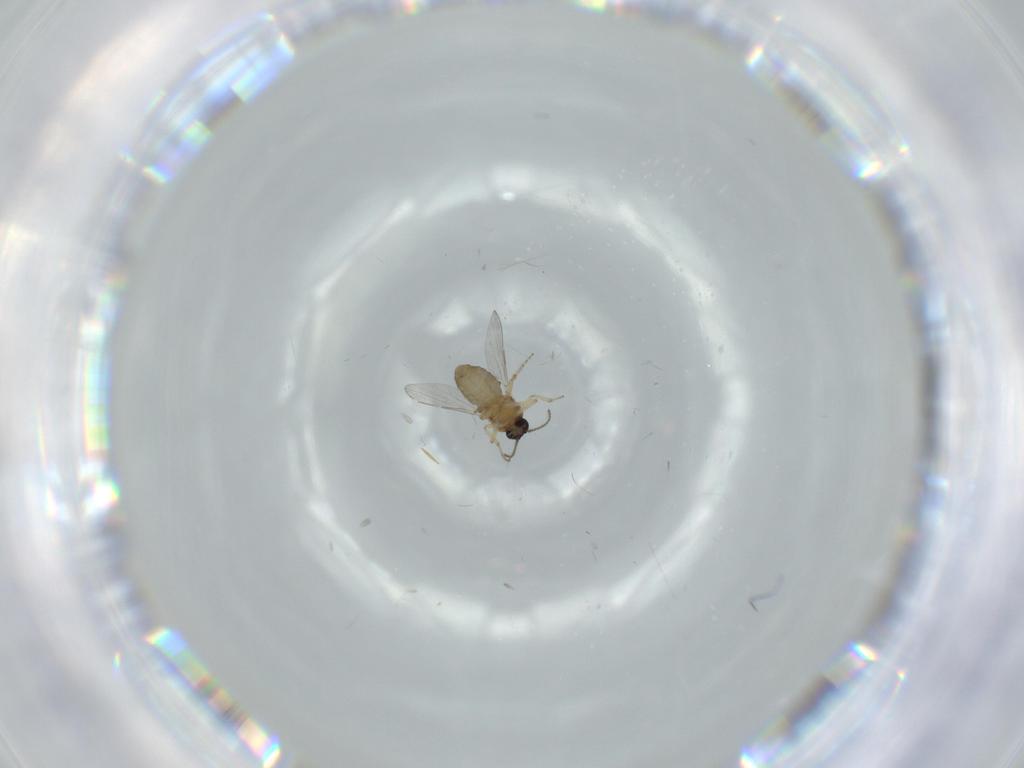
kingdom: Animalia
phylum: Arthropoda
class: Insecta
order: Diptera
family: Ceratopogonidae
